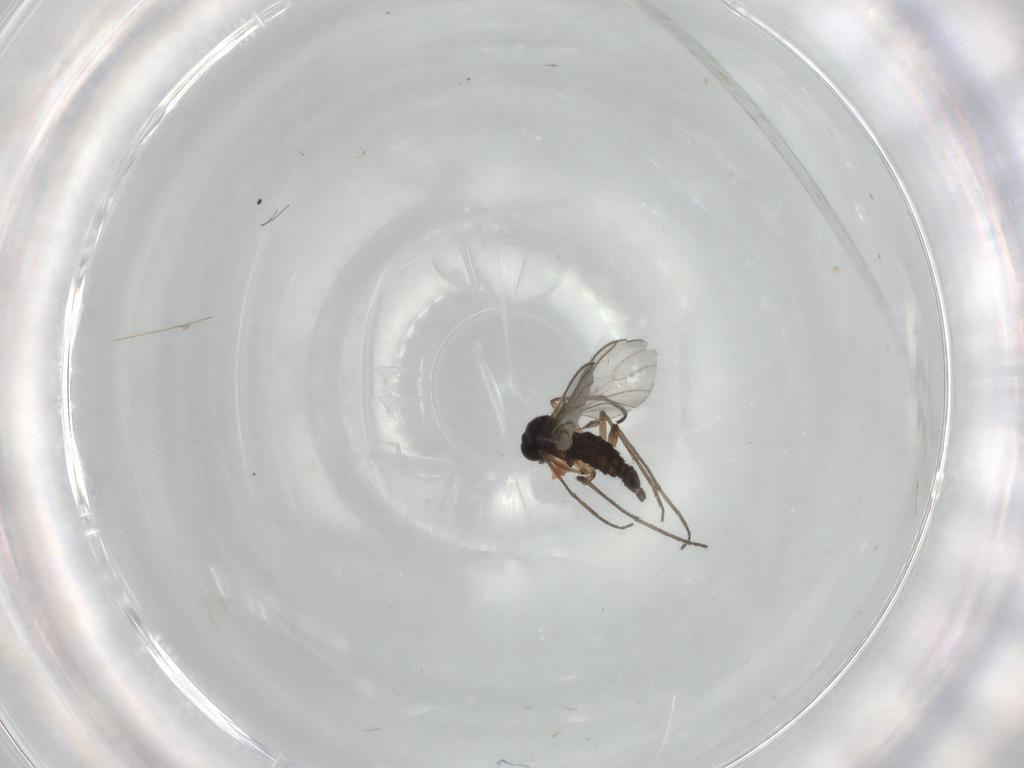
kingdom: Animalia
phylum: Arthropoda
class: Insecta
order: Diptera
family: Sciaridae
